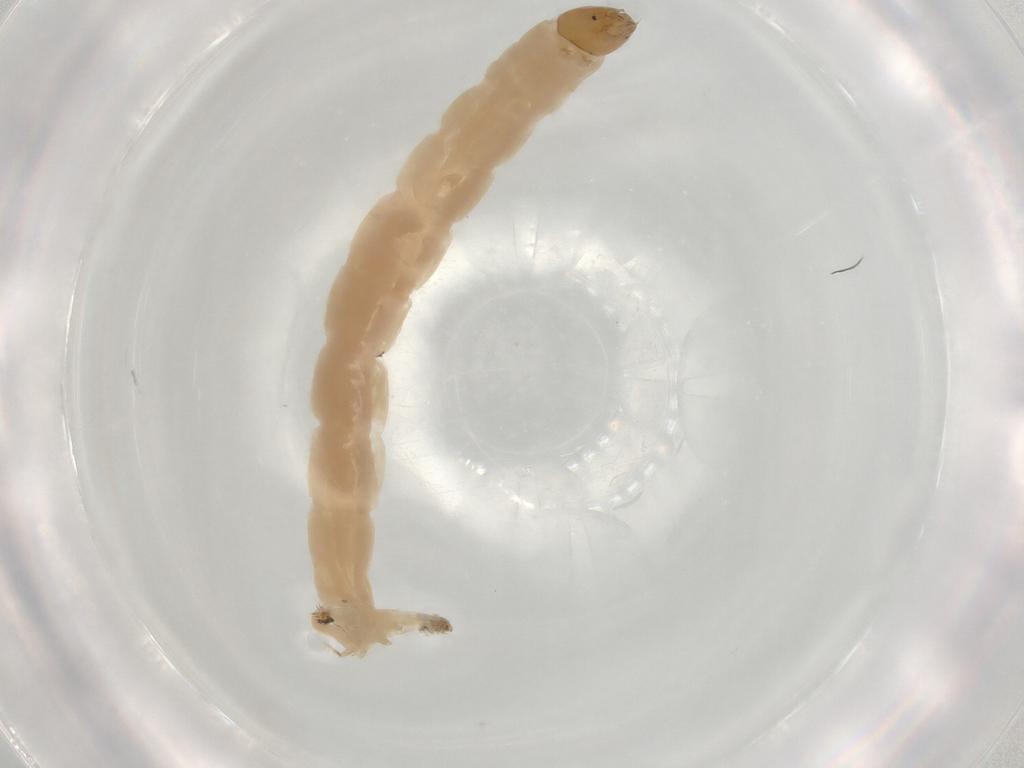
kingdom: Animalia
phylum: Arthropoda
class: Insecta
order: Diptera
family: Chironomidae
